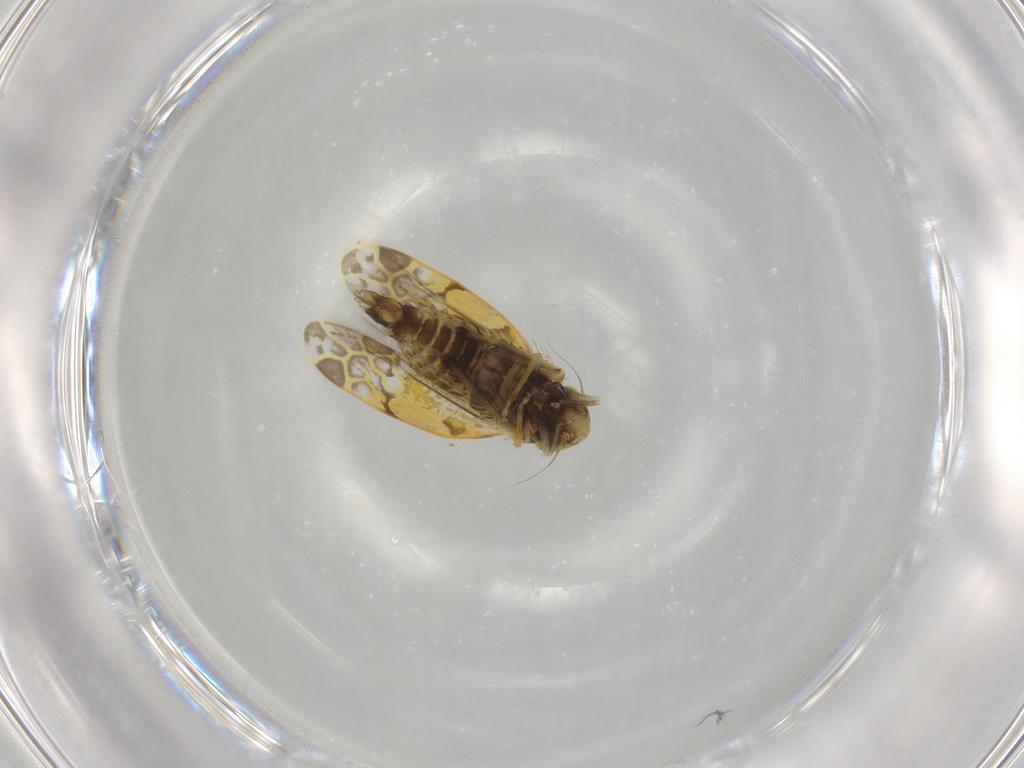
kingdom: Animalia
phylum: Arthropoda
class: Insecta
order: Hemiptera
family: Cicadellidae
